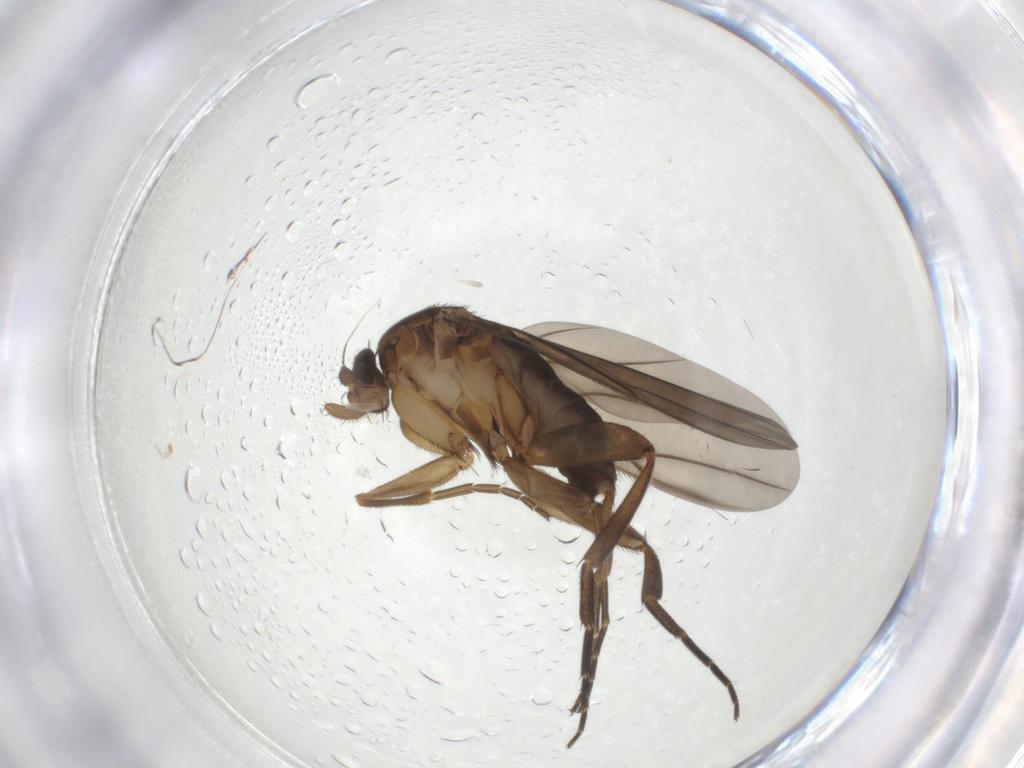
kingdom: Animalia
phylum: Arthropoda
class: Insecta
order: Diptera
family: Phoridae
